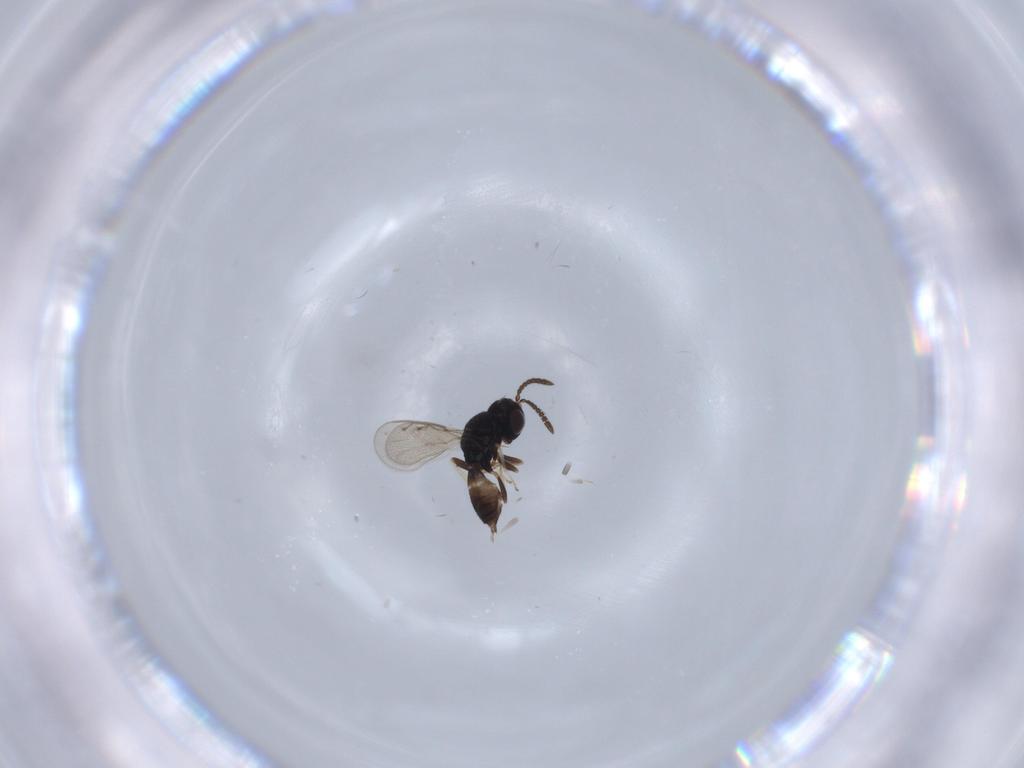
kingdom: Animalia
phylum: Arthropoda
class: Insecta
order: Hymenoptera
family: Pteromalidae
